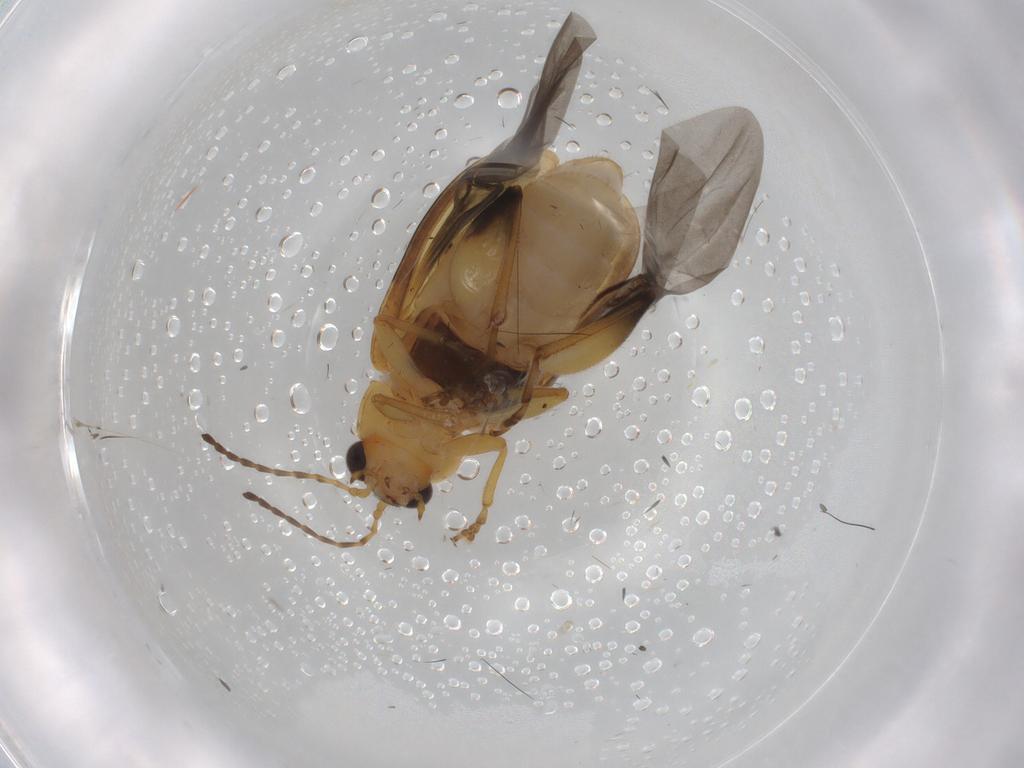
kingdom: Animalia
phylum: Arthropoda
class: Insecta
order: Coleoptera
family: Chrysomelidae
